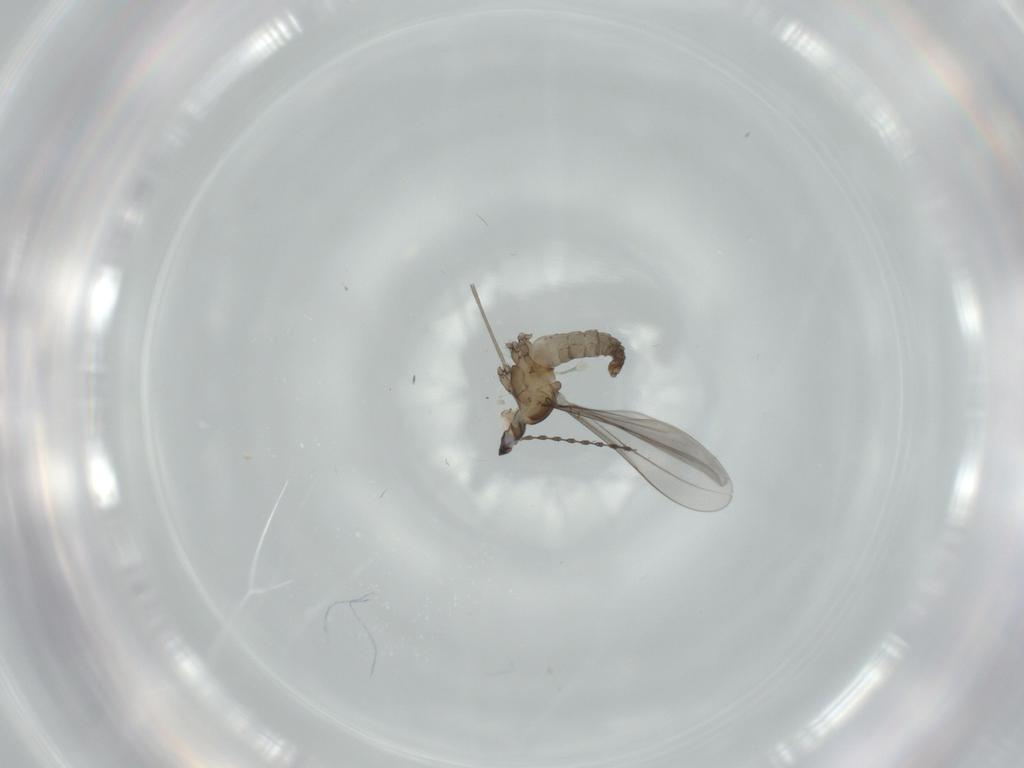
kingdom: Animalia
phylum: Arthropoda
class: Insecta
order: Diptera
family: Cecidomyiidae
